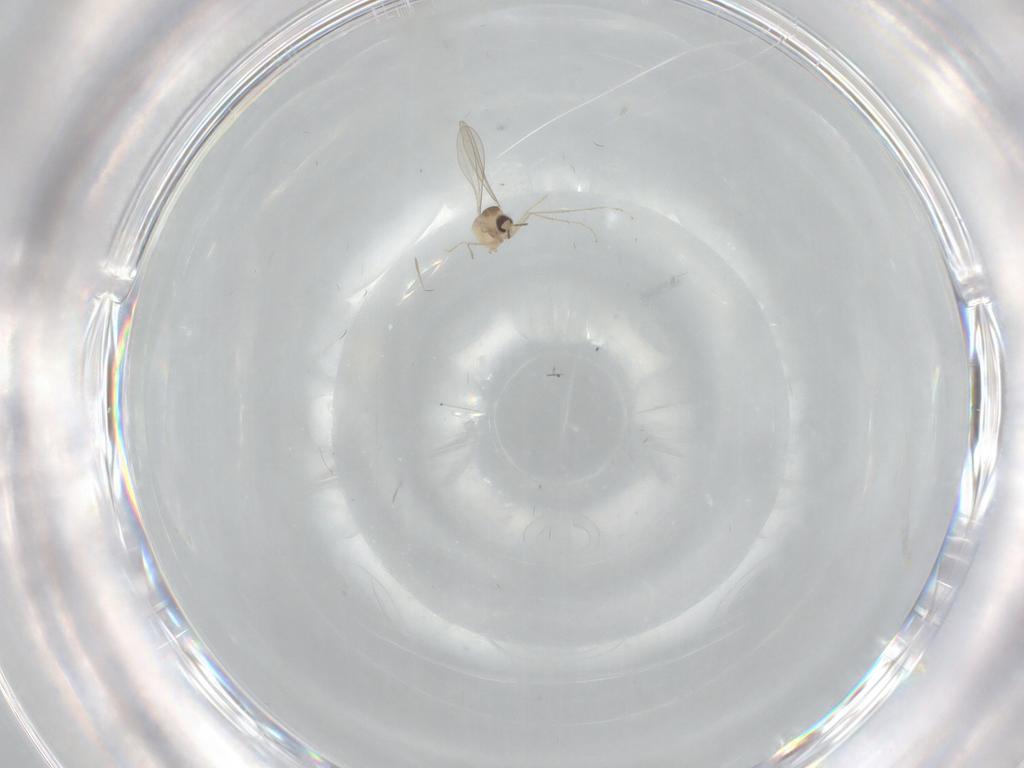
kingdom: Animalia
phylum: Arthropoda
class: Insecta
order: Diptera
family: Cecidomyiidae
